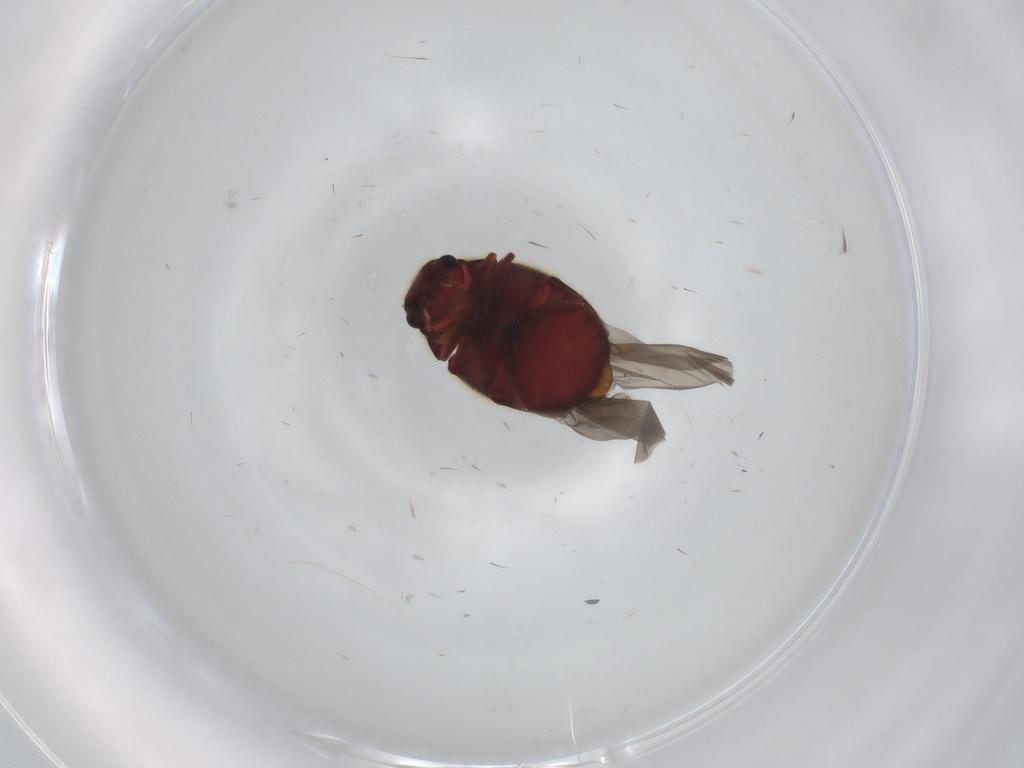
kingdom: Animalia
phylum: Arthropoda
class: Insecta
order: Coleoptera
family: Ptinidae
